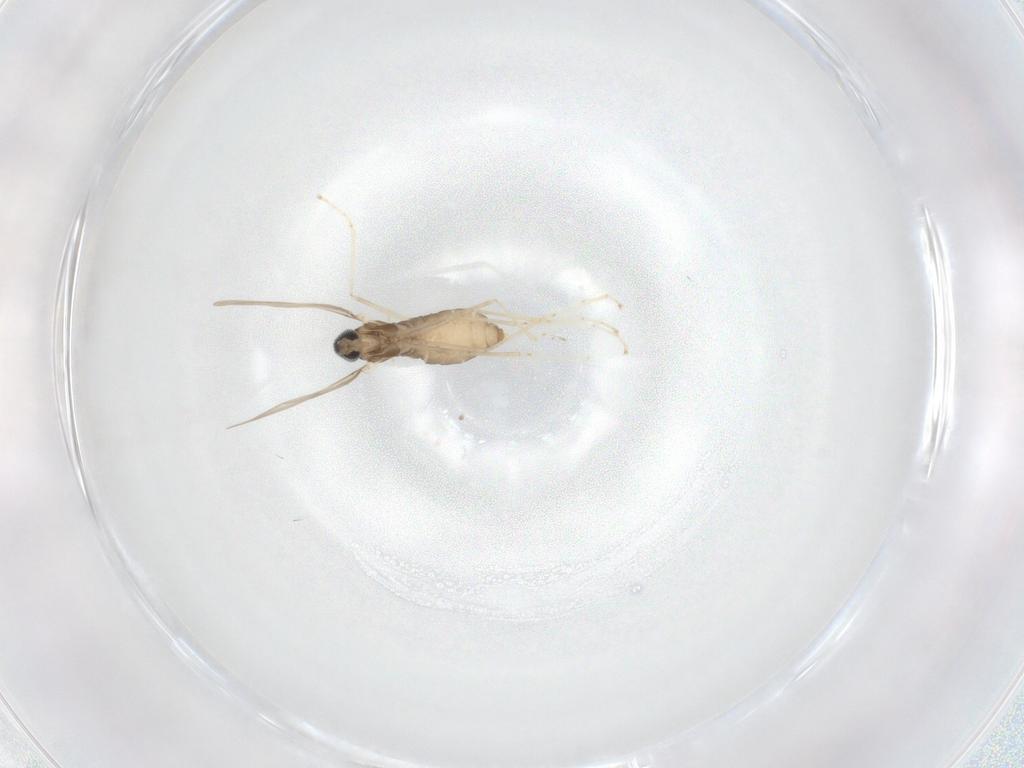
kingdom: Animalia
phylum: Arthropoda
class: Insecta
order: Diptera
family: Cecidomyiidae
